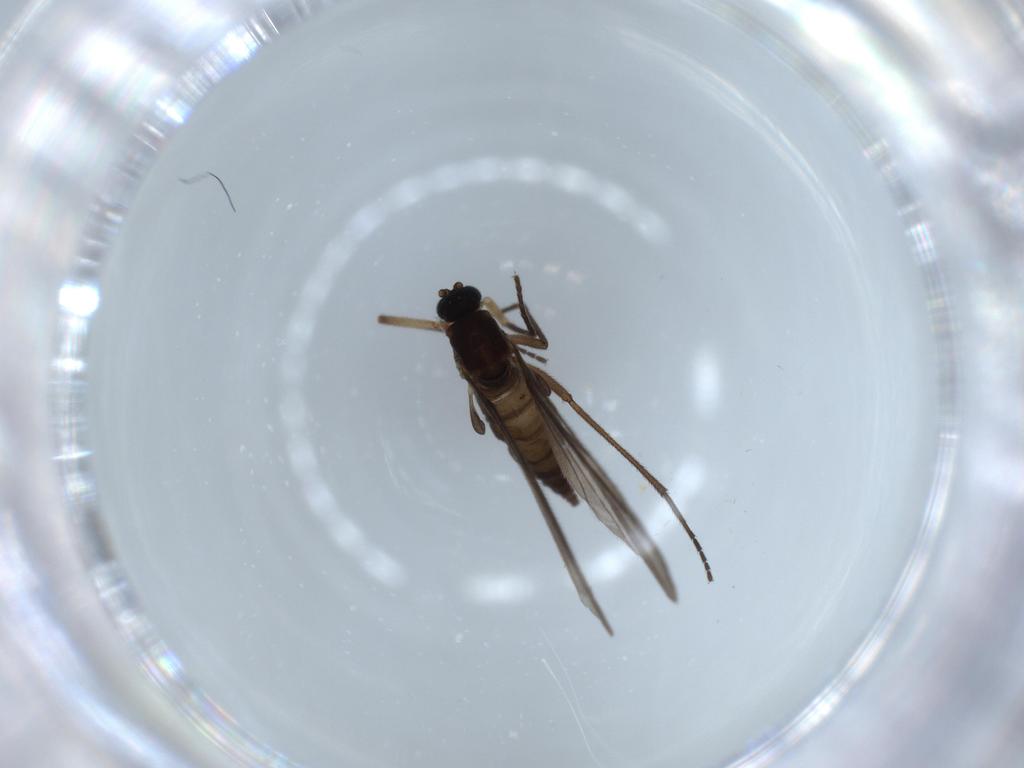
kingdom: Animalia
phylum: Arthropoda
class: Insecta
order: Diptera
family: Sciaridae
